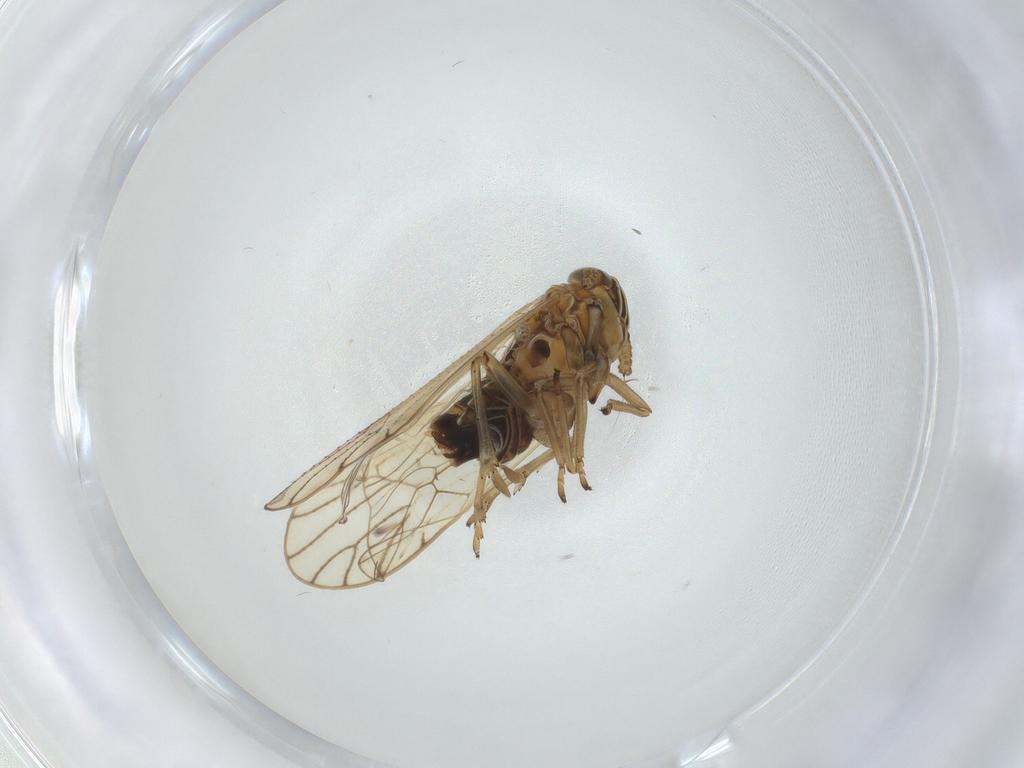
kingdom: Animalia
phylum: Arthropoda
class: Insecta
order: Hemiptera
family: Delphacidae
